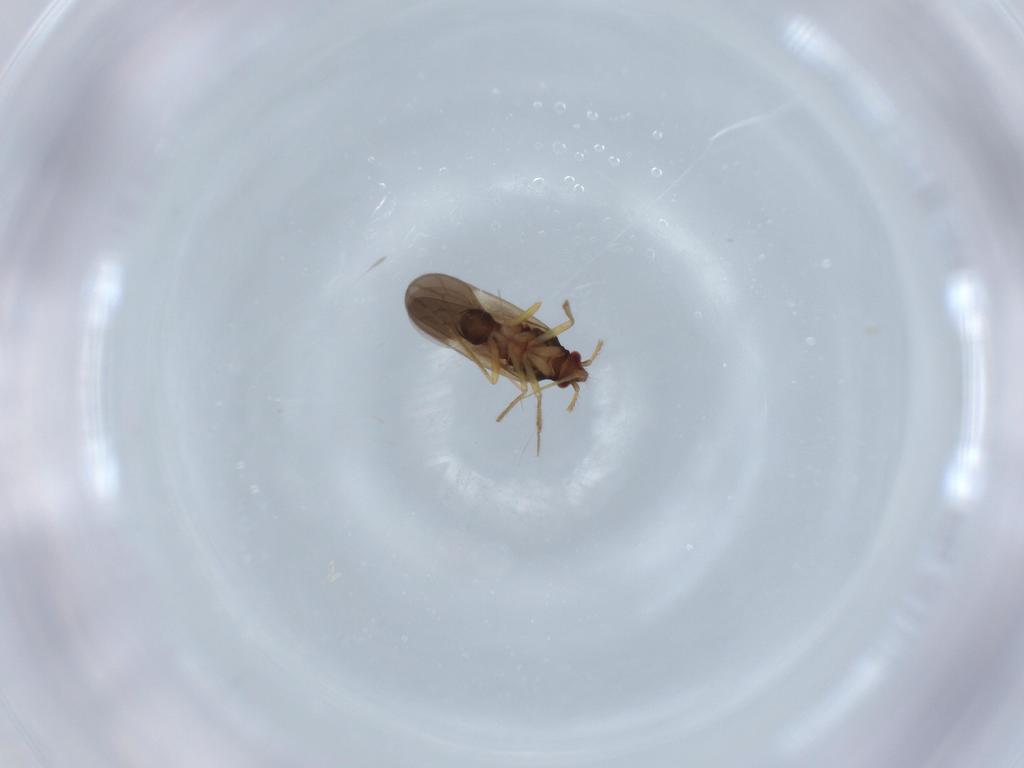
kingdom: Animalia
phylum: Arthropoda
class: Insecta
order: Hemiptera
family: Ceratocombidae
